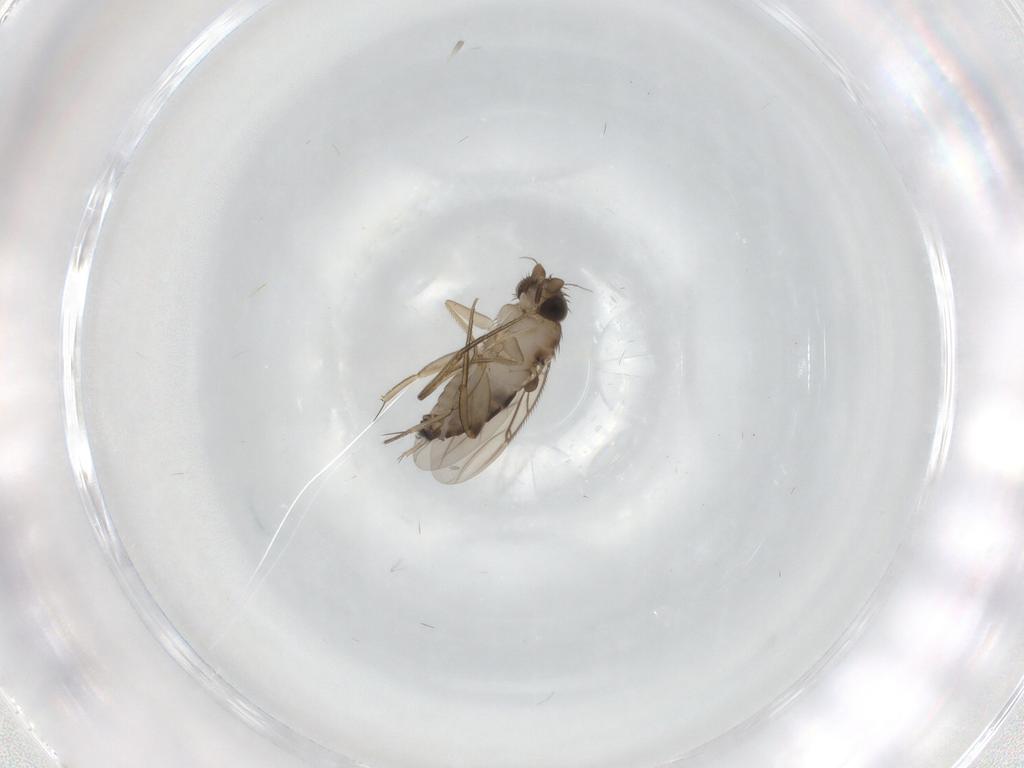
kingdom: Animalia
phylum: Arthropoda
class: Insecta
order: Diptera
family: Phoridae
